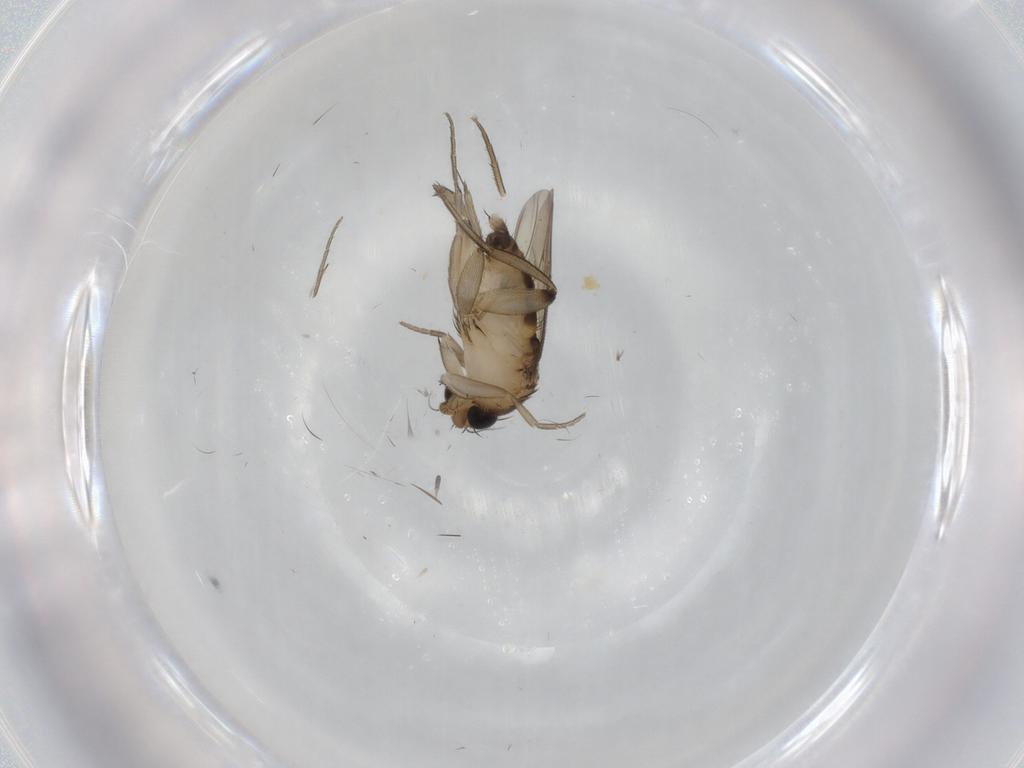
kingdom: Animalia
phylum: Arthropoda
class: Insecta
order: Diptera
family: Phoridae
